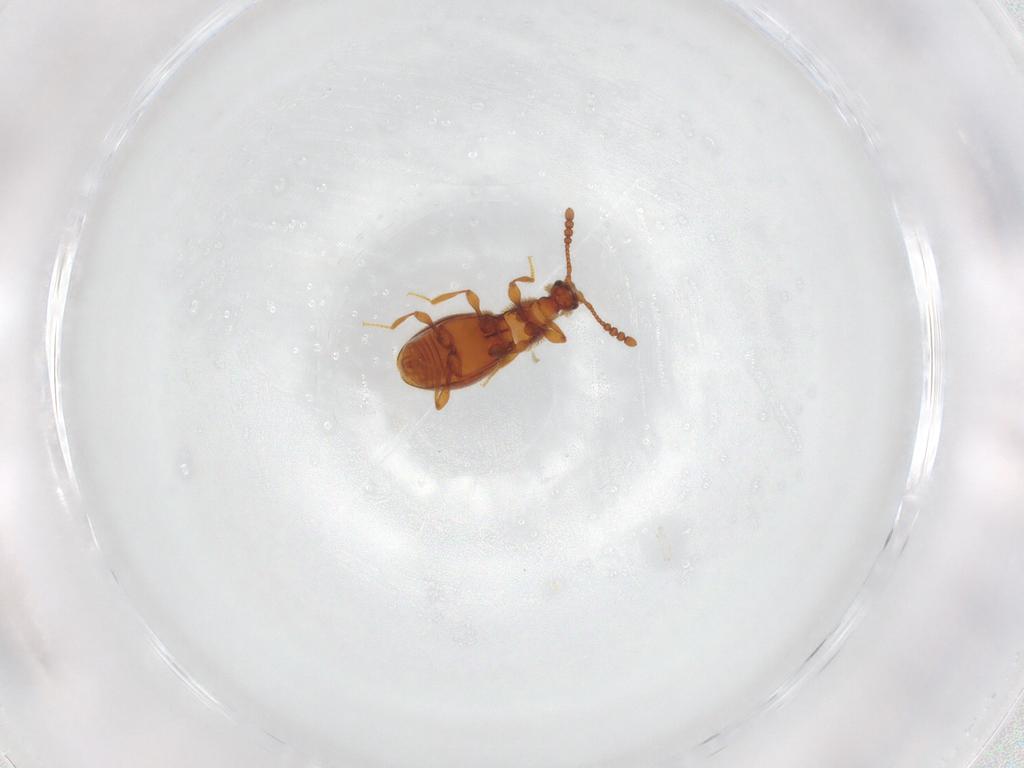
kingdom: Animalia
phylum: Arthropoda
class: Insecta
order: Coleoptera
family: Staphylinidae
